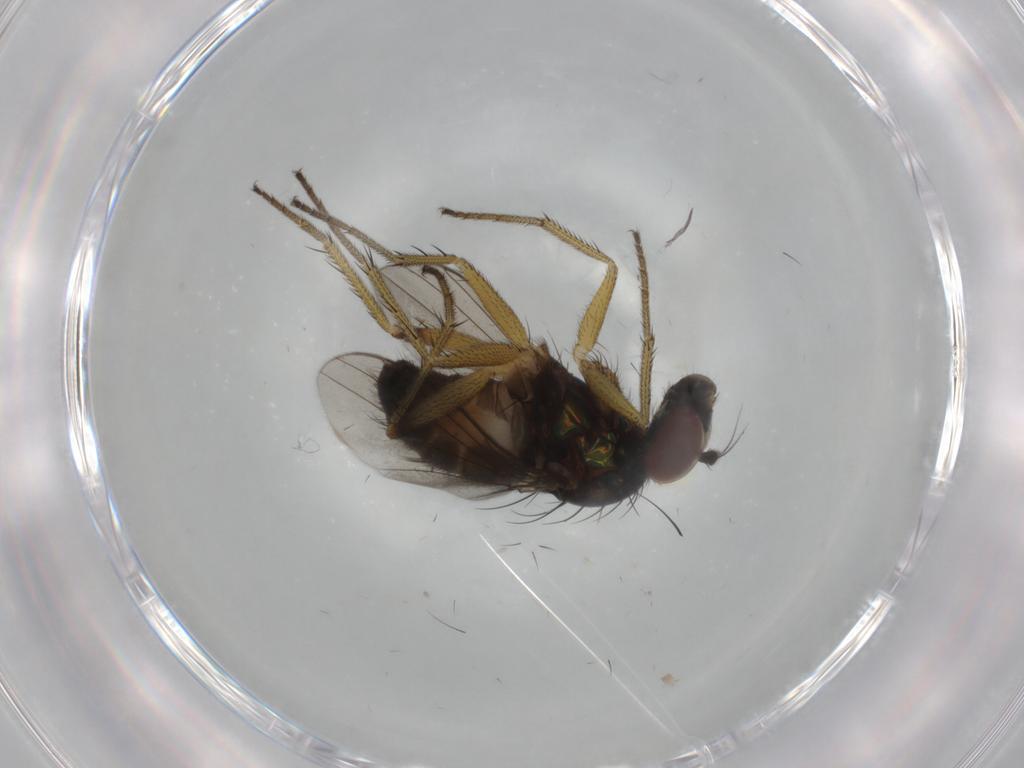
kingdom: Animalia
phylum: Arthropoda
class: Insecta
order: Diptera
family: Dolichopodidae
